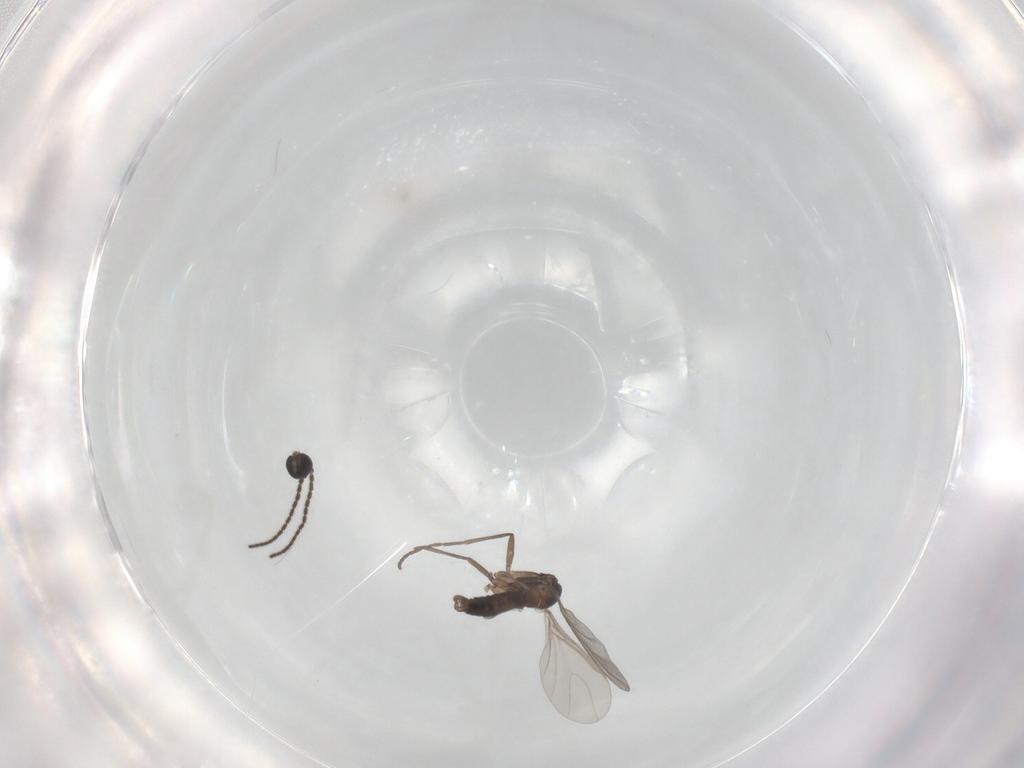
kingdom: Animalia
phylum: Arthropoda
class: Insecta
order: Diptera
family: Sciaridae
